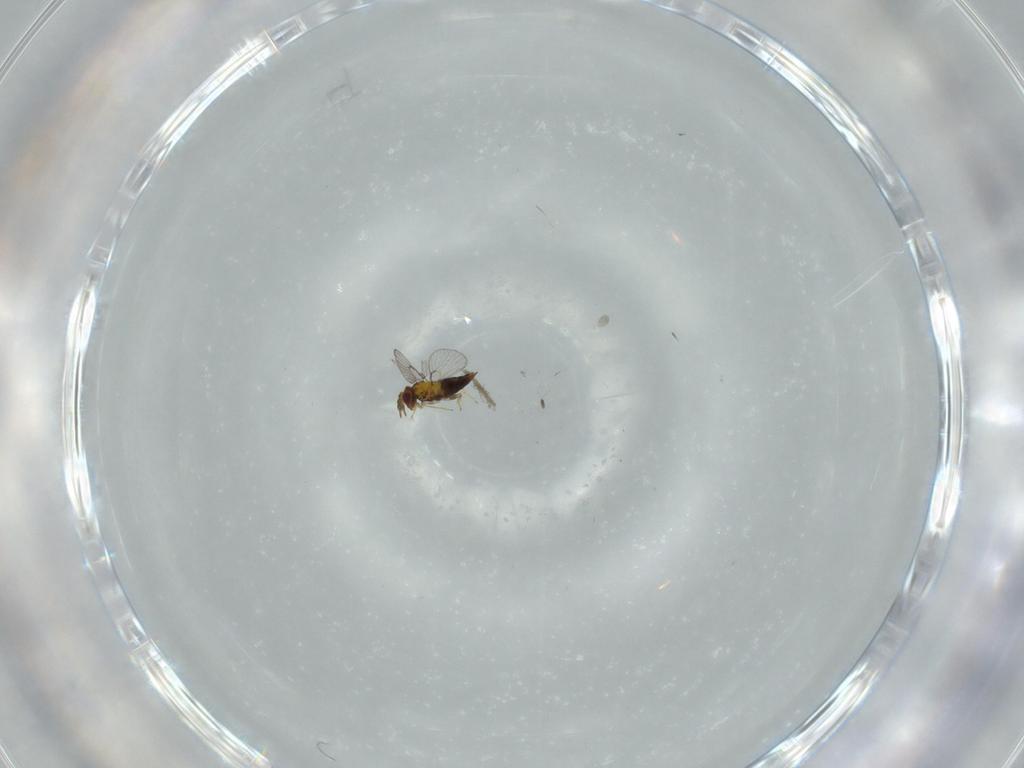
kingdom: Animalia
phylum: Arthropoda
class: Insecta
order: Hymenoptera
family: Trichogrammatidae
